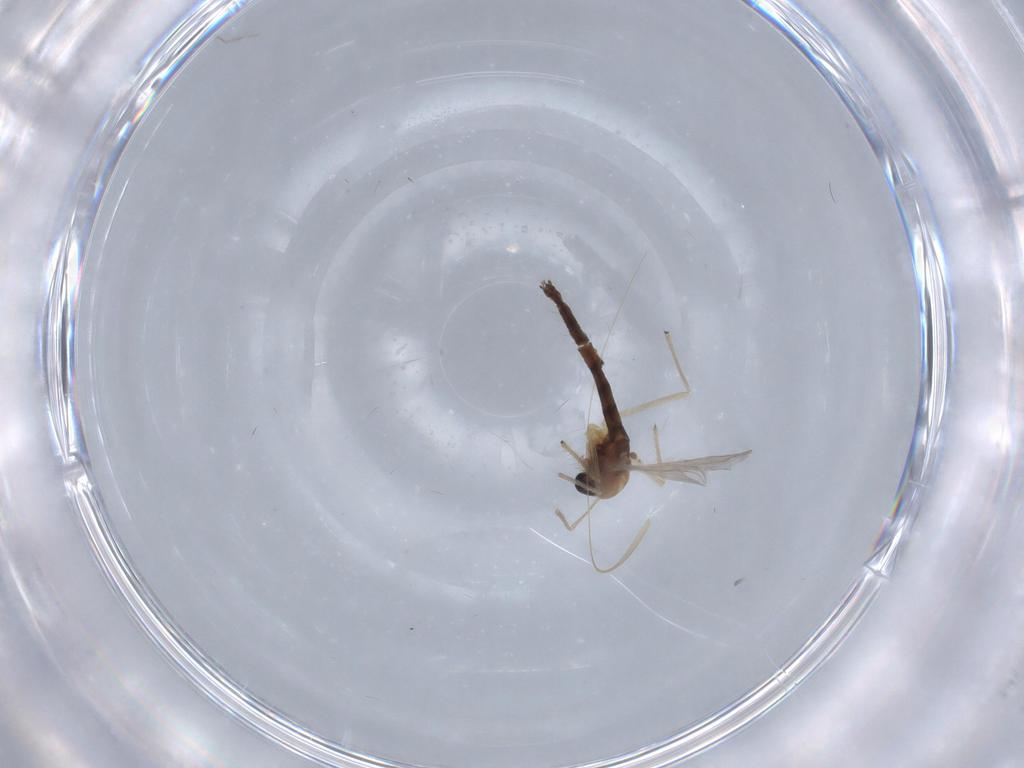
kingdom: Animalia
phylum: Arthropoda
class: Insecta
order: Diptera
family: Chironomidae
